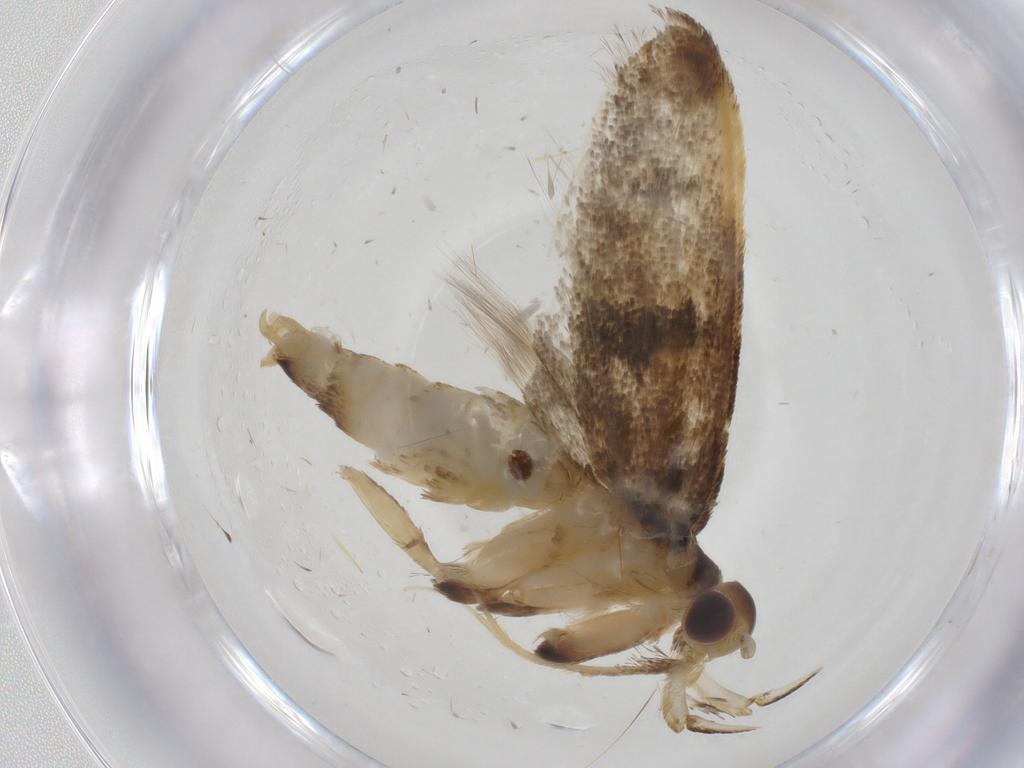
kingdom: Animalia
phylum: Arthropoda
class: Insecta
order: Lepidoptera
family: Lecithoceridae
